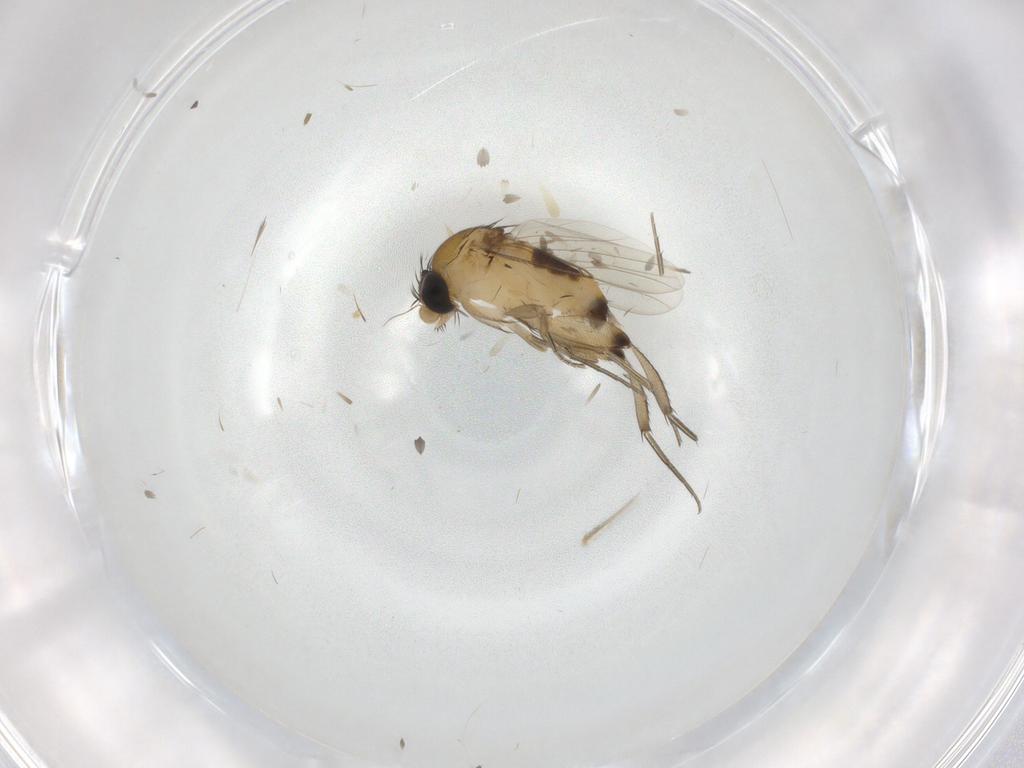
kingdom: Animalia
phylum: Arthropoda
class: Insecta
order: Diptera
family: Phoridae
